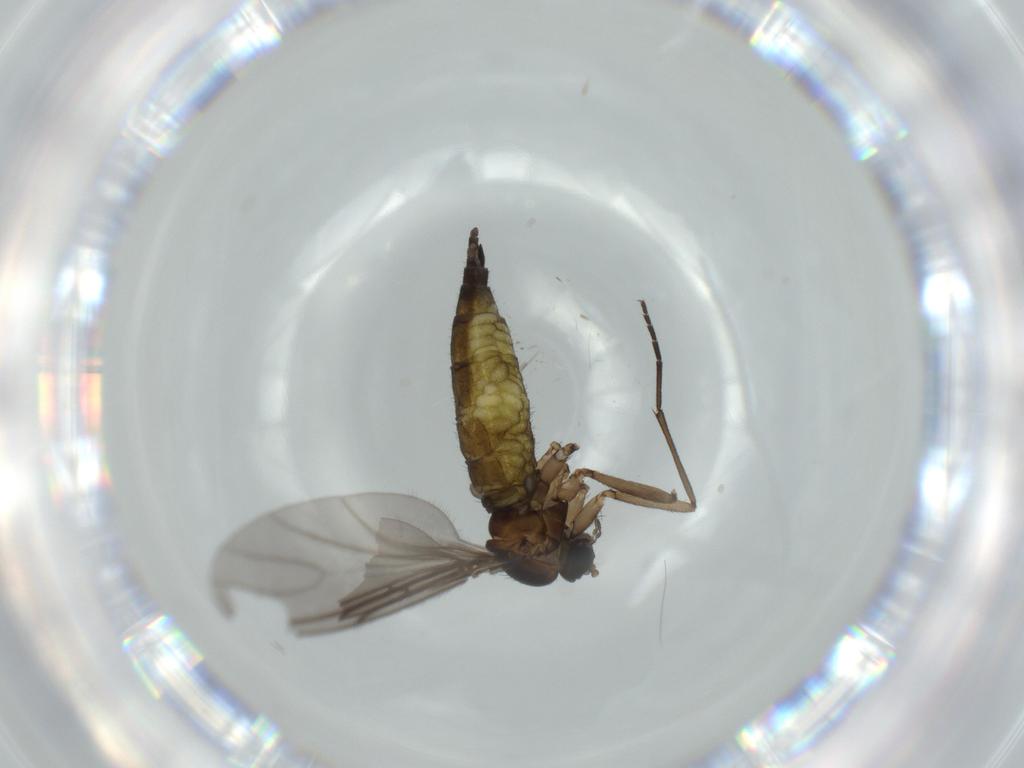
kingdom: Animalia
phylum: Arthropoda
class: Insecta
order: Diptera
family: Sciaridae
